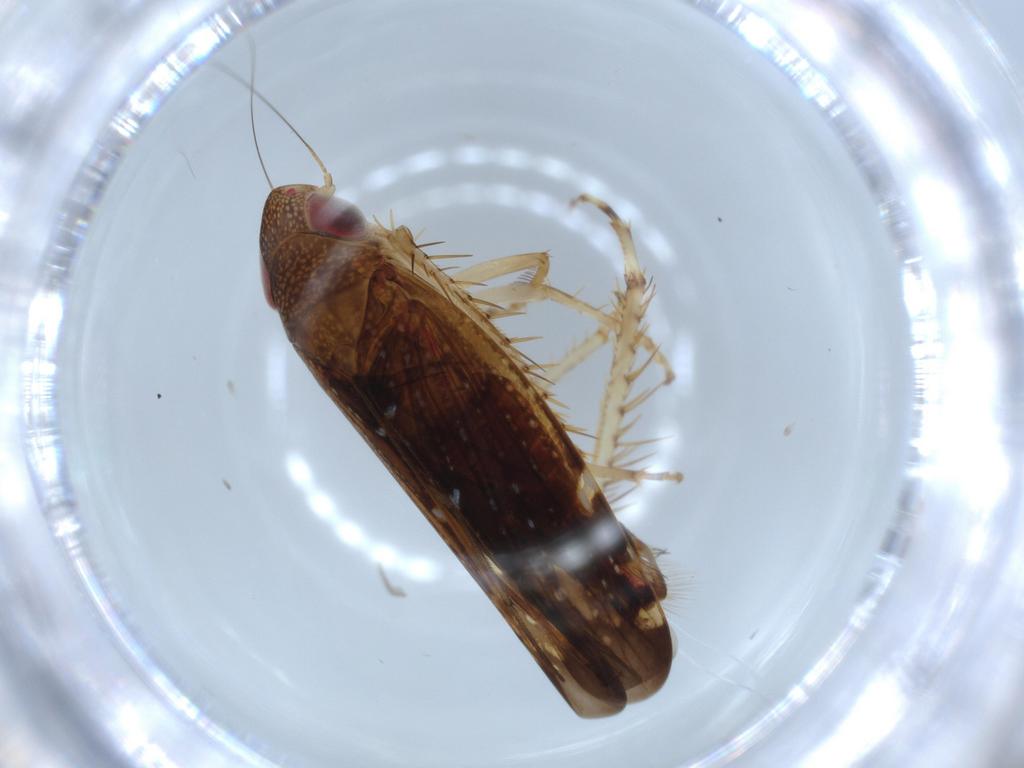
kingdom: Animalia
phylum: Arthropoda
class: Insecta
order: Hemiptera
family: Cicadellidae
